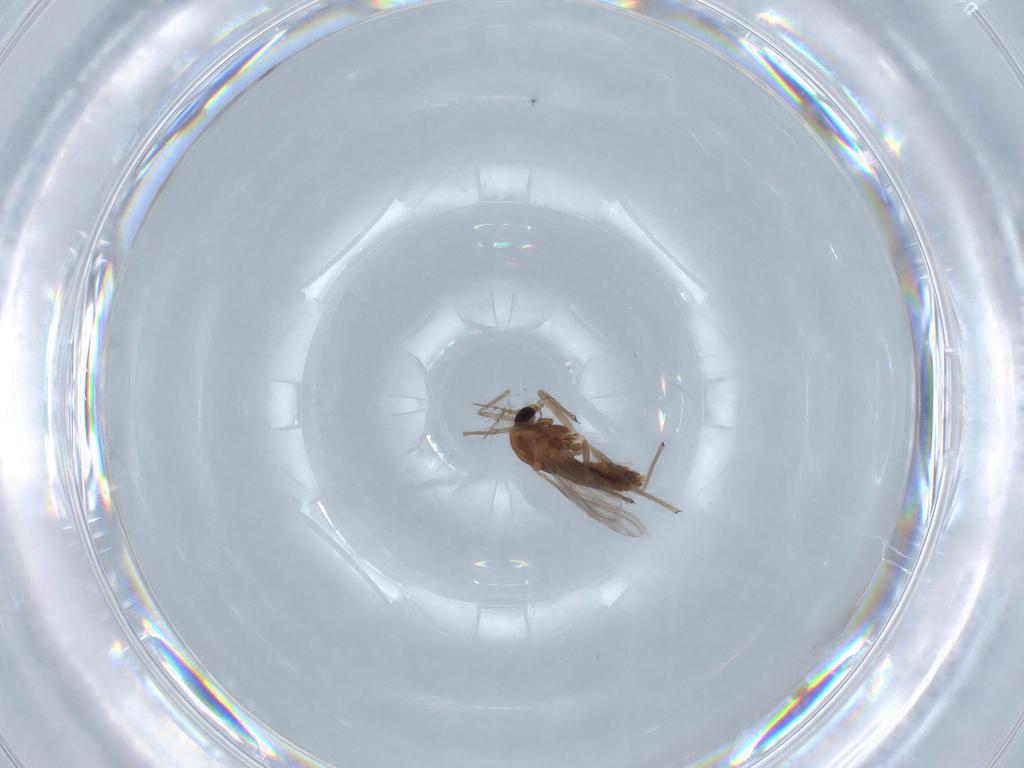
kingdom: Animalia
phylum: Arthropoda
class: Insecta
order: Diptera
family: Chironomidae
